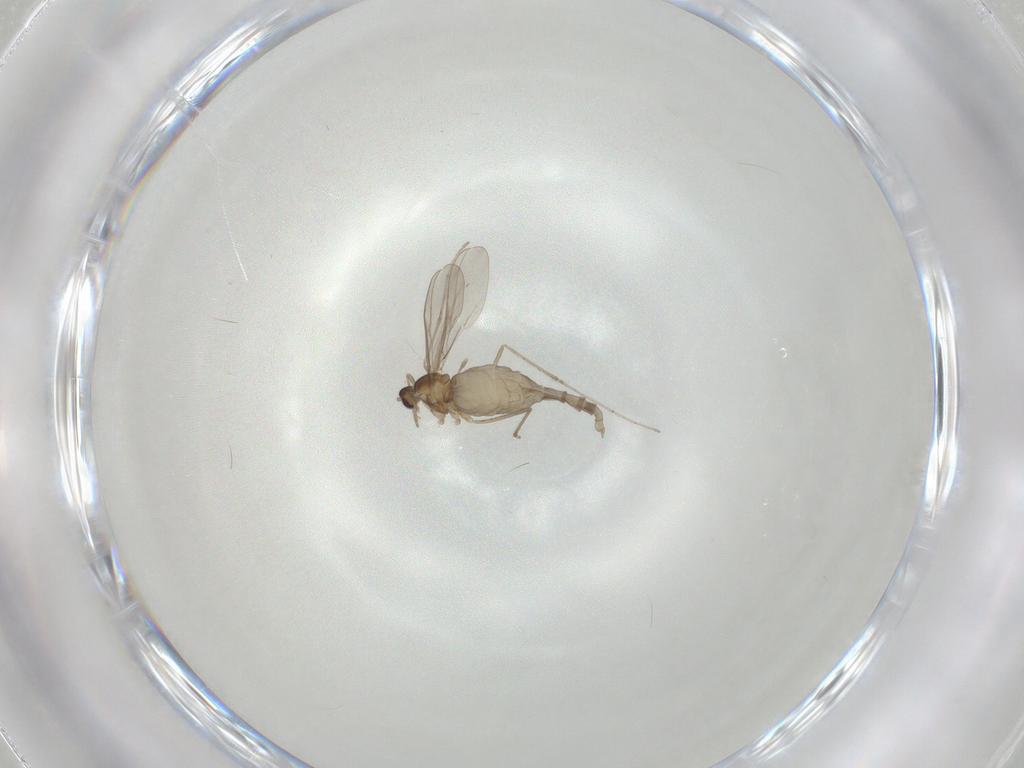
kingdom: Animalia
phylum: Arthropoda
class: Insecta
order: Diptera
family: Cecidomyiidae
